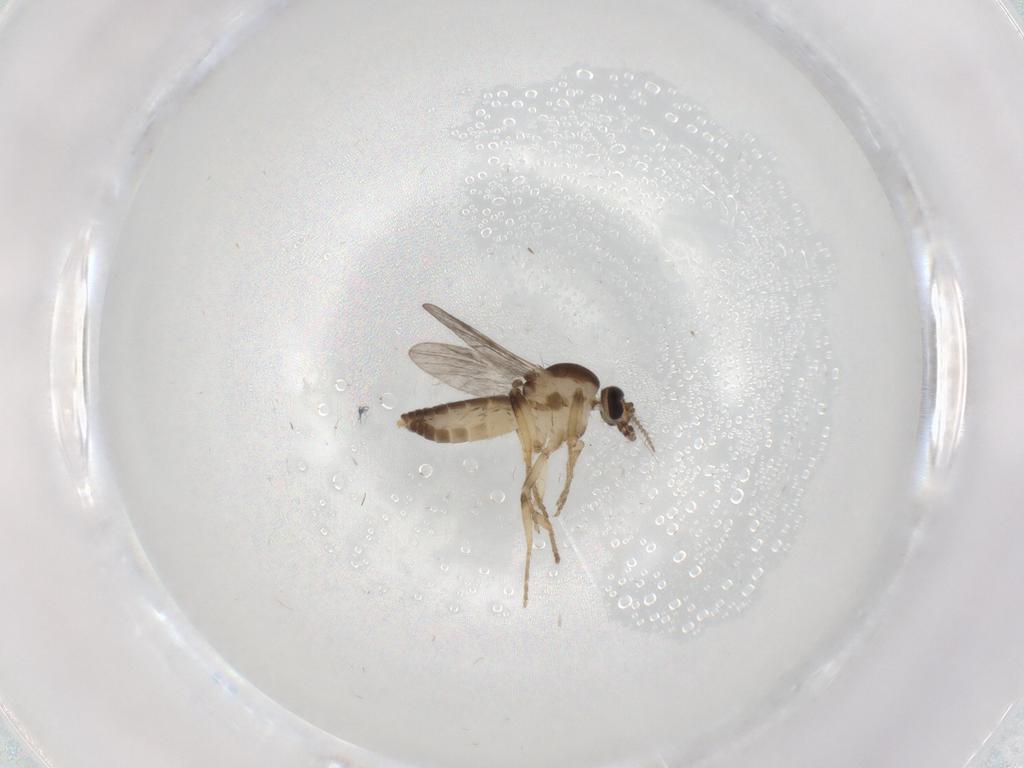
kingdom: Animalia
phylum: Arthropoda
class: Insecta
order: Diptera
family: Ceratopogonidae
